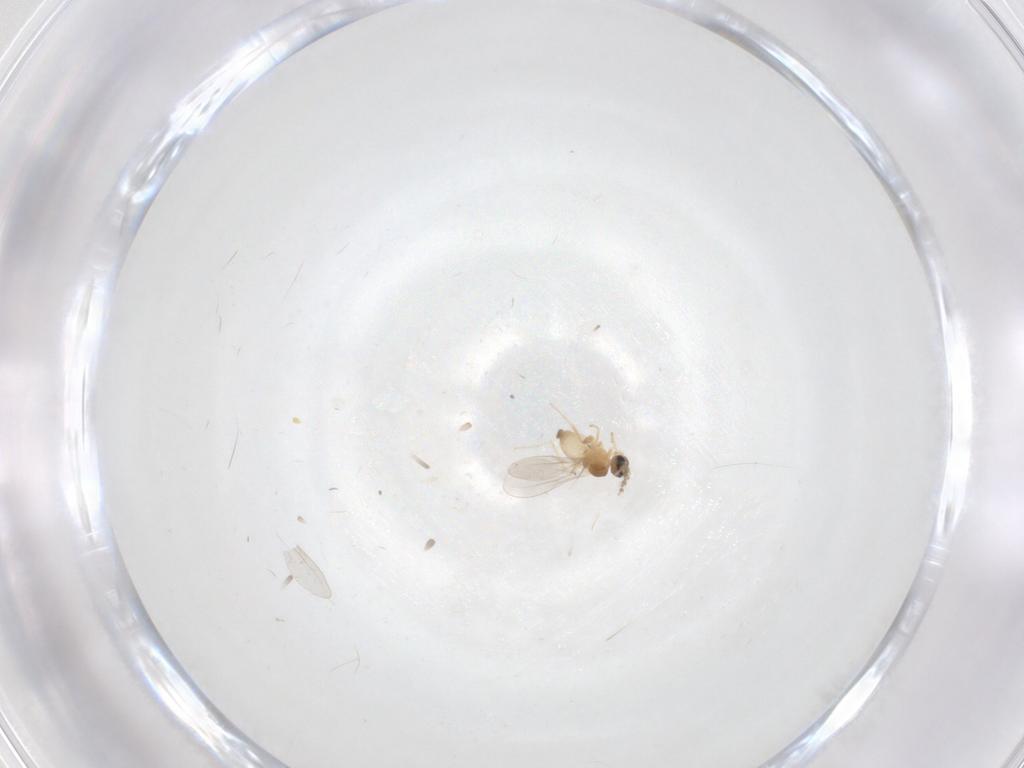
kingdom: Animalia
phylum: Arthropoda
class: Insecta
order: Diptera
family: Cecidomyiidae
